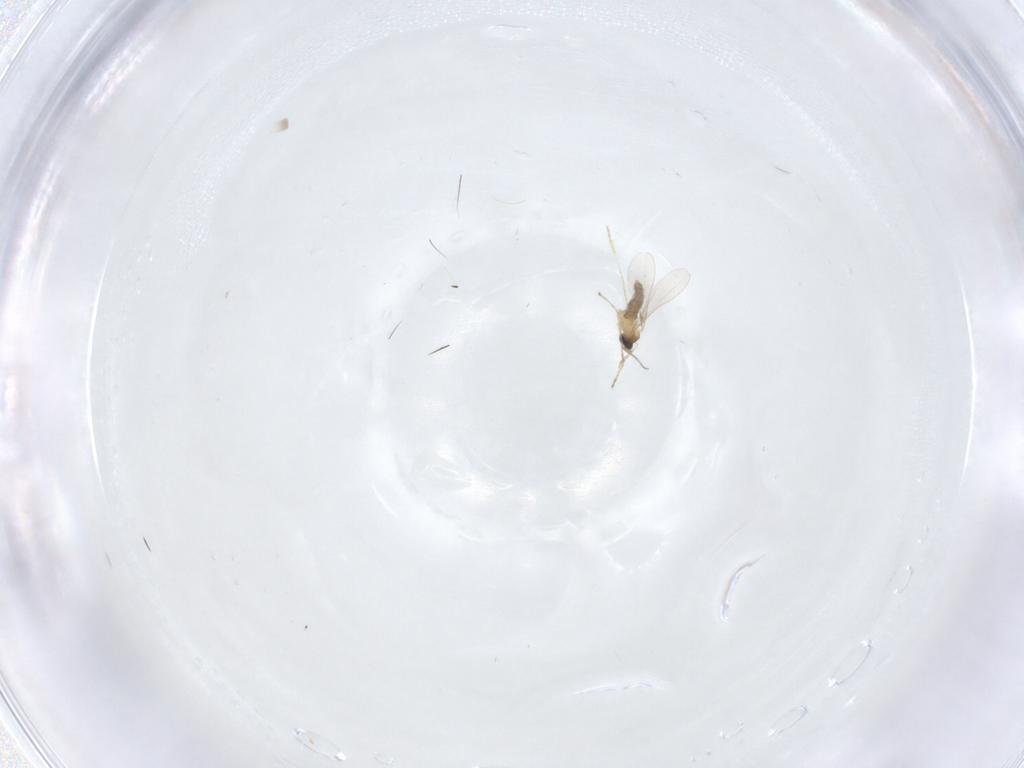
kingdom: Animalia
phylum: Arthropoda
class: Insecta
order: Diptera
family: Cecidomyiidae
